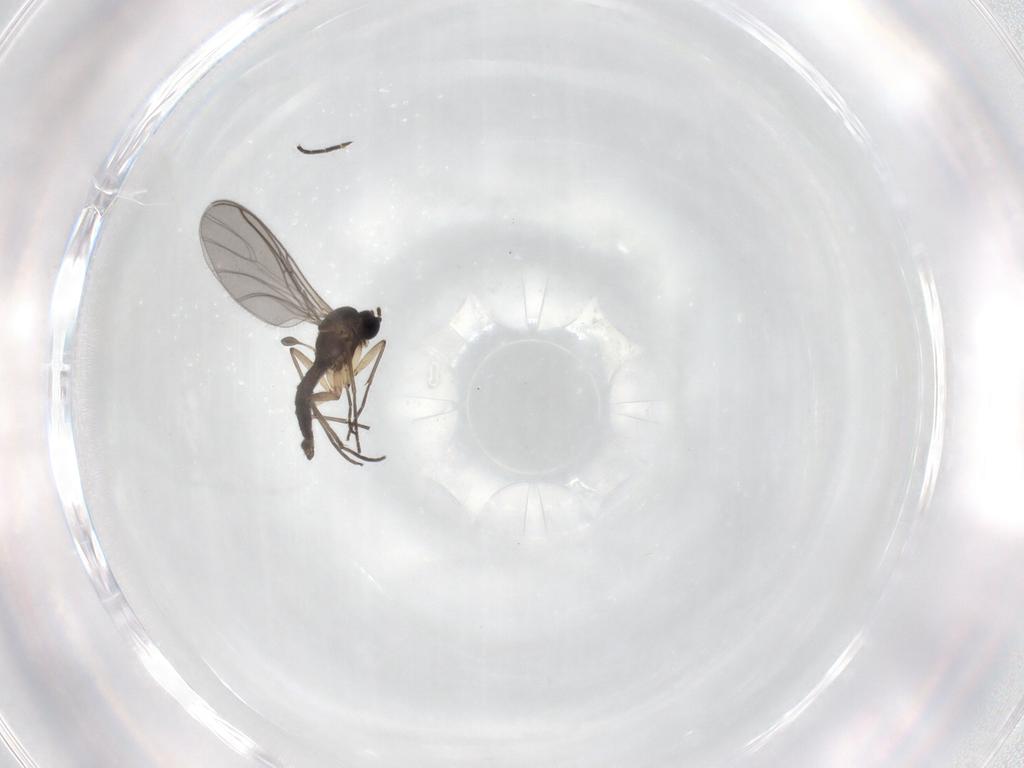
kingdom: Animalia
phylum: Arthropoda
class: Insecta
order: Diptera
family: Sciaridae
